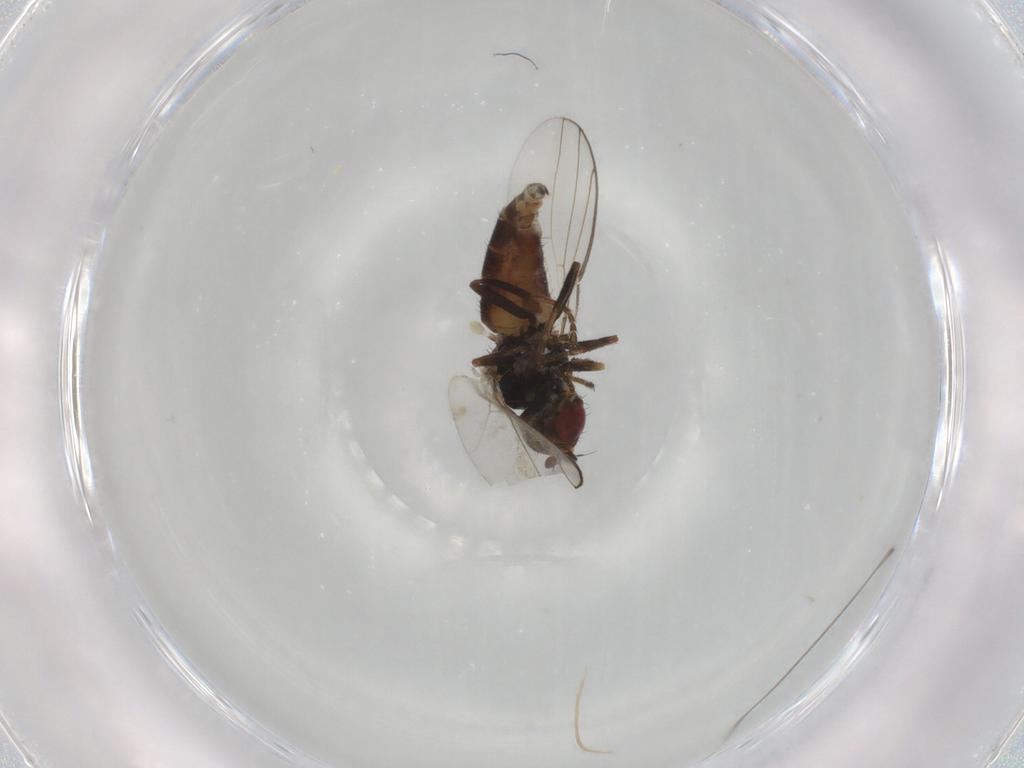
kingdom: Animalia
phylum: Arthropoda
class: Insecta
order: Diptera
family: Chloropidae
